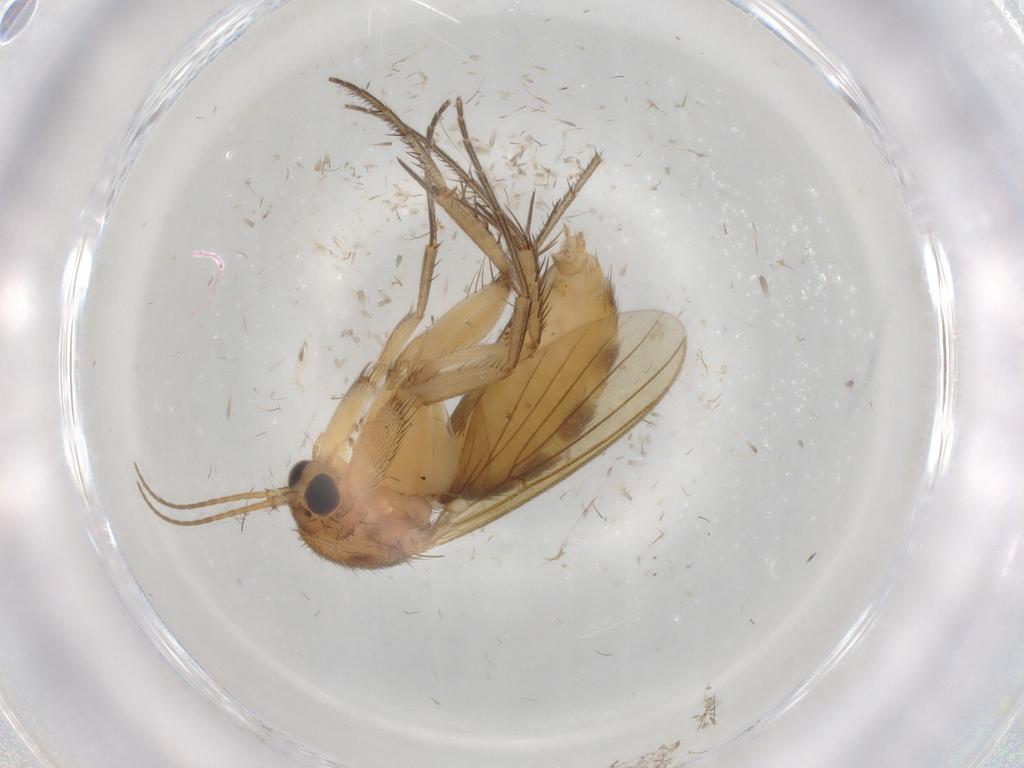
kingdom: Animalia
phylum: Arthropoda
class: Insecta
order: Diptera
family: Mycetophilidae
